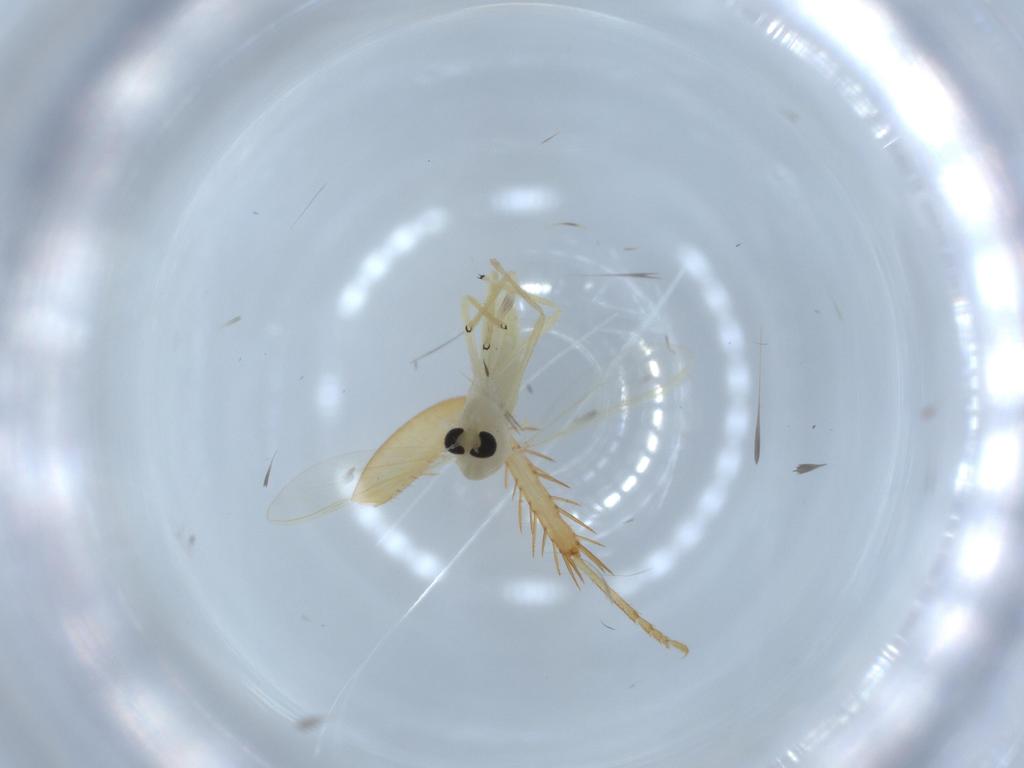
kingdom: Animalia
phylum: Arthropoda
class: Insecta
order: Diptera
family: Chironomidae
